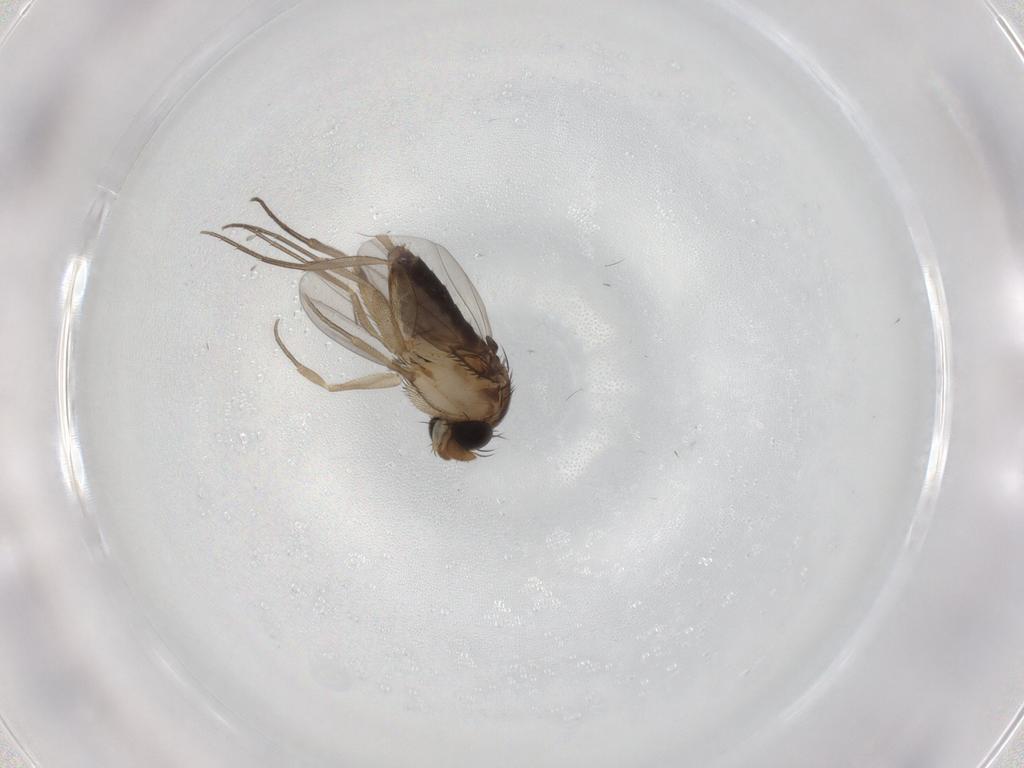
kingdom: Animalia
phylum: Arthropoda
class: Insecta
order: Diptera
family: Phoridae
